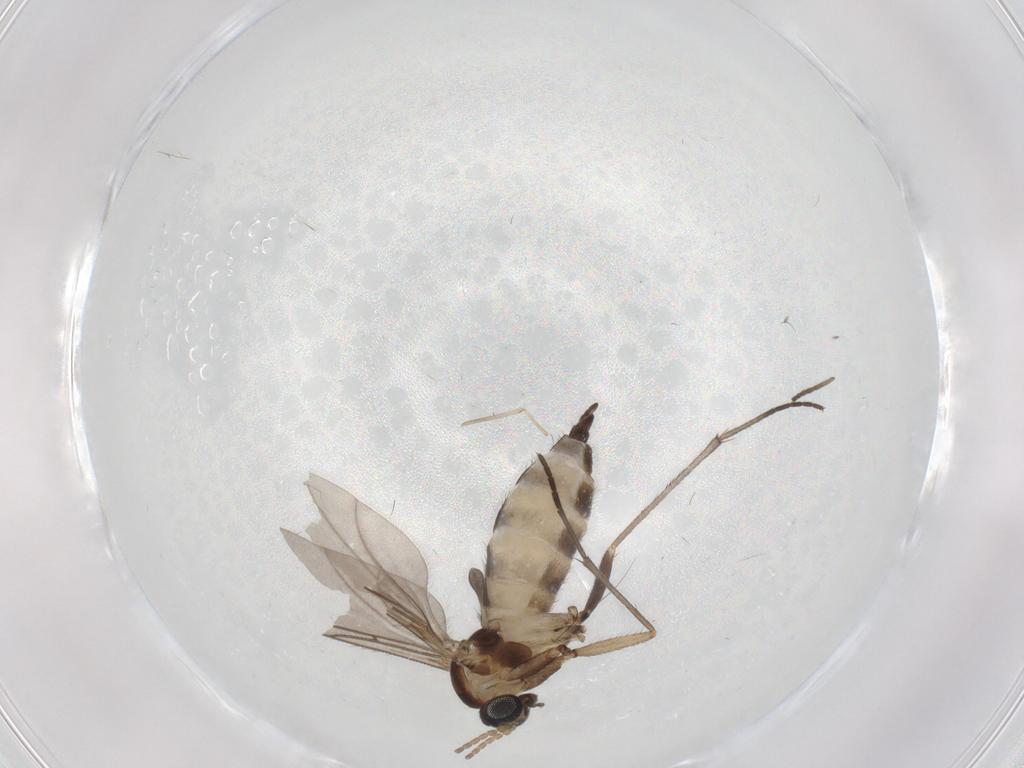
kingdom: Animalia
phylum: Arthropoda
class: Insecta
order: Diptera
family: Sciaridae
